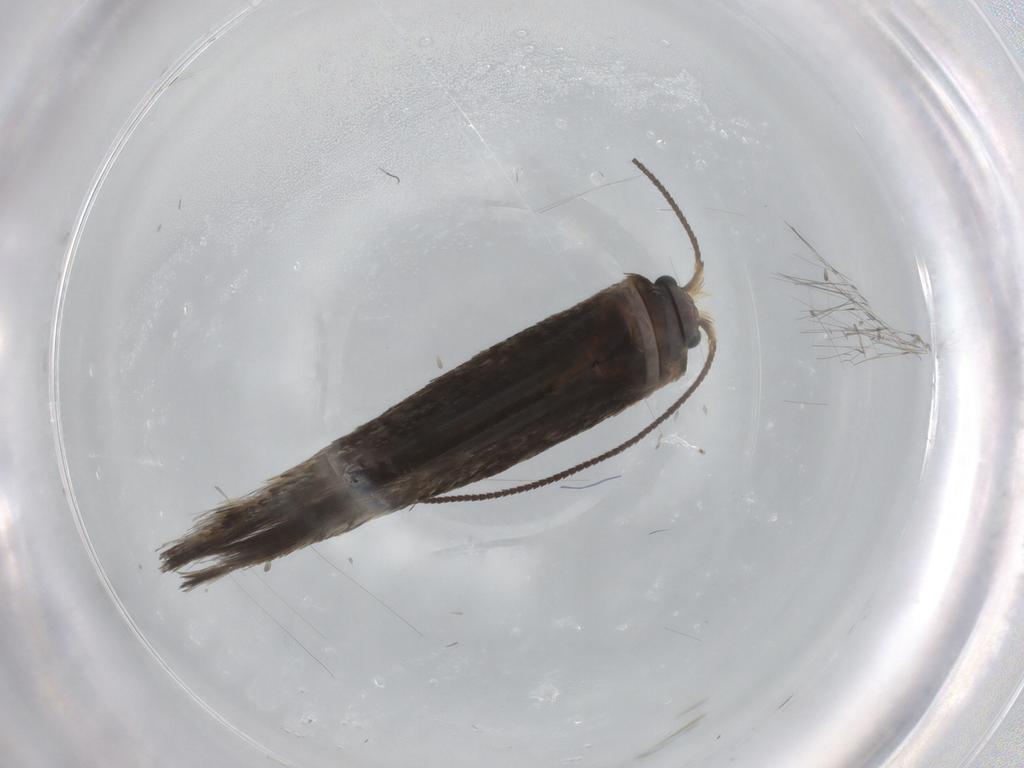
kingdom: Animalia
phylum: Arthropoda
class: Insecta
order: Lepidoptera
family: Nepticulidae
